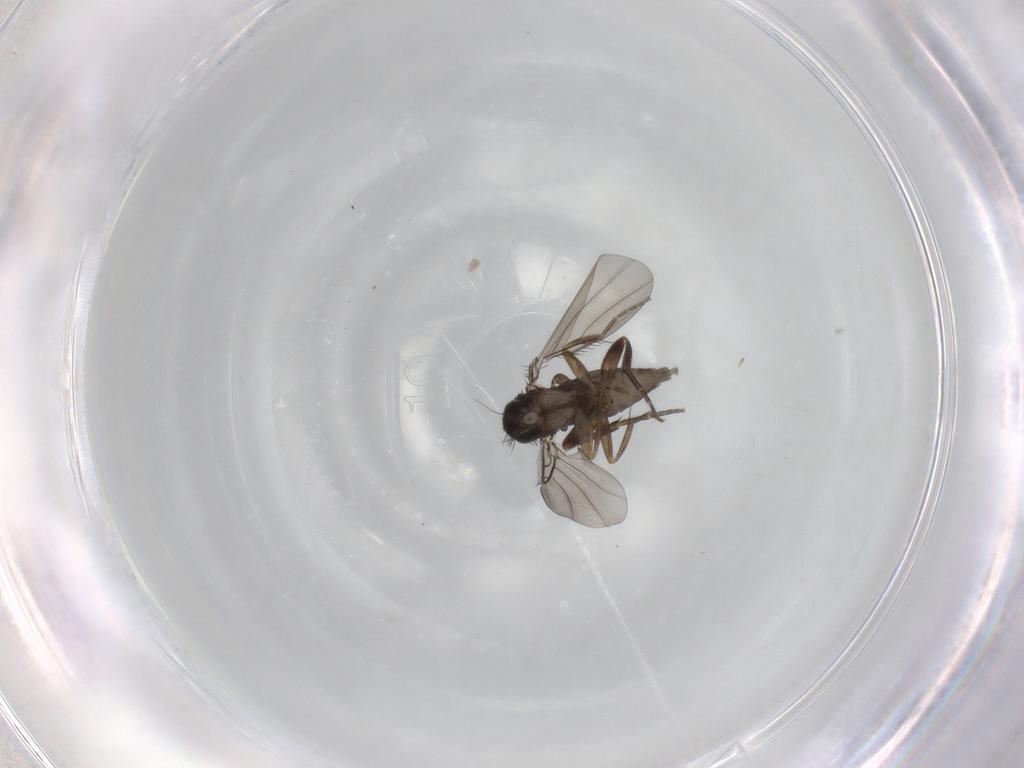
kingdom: Animalia
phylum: Arthropoda
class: Insecta
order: Diptera
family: Phoridae
